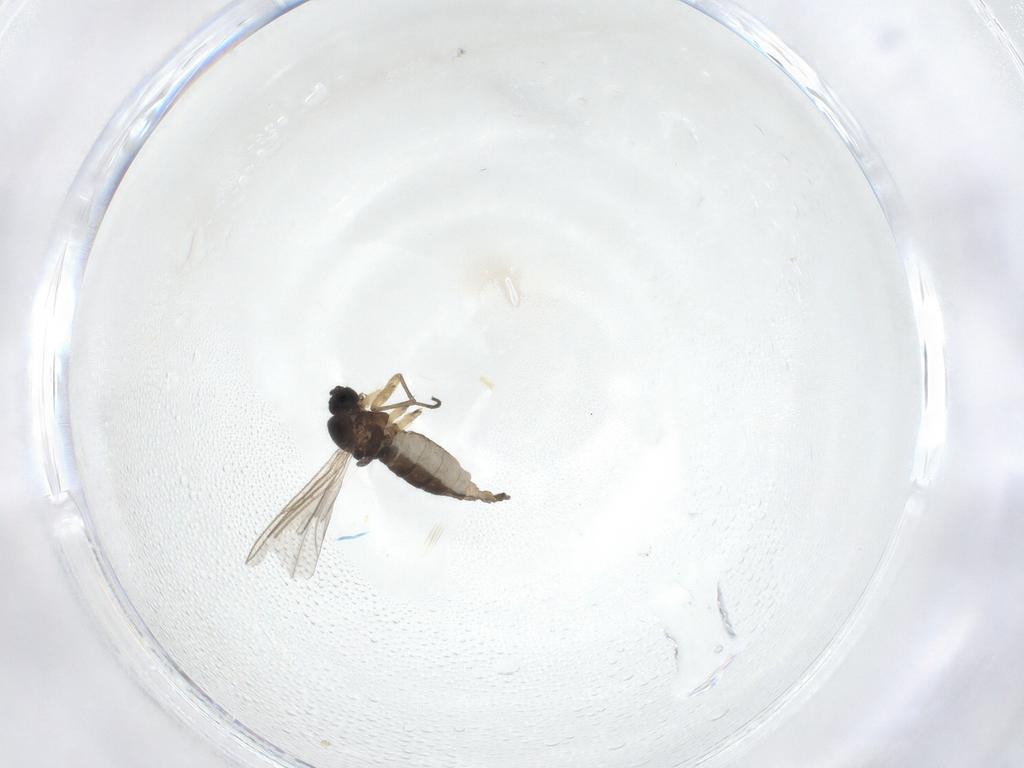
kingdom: Animalia
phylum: Arthropoda
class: Insecta
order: Diptera
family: Sciaridae
